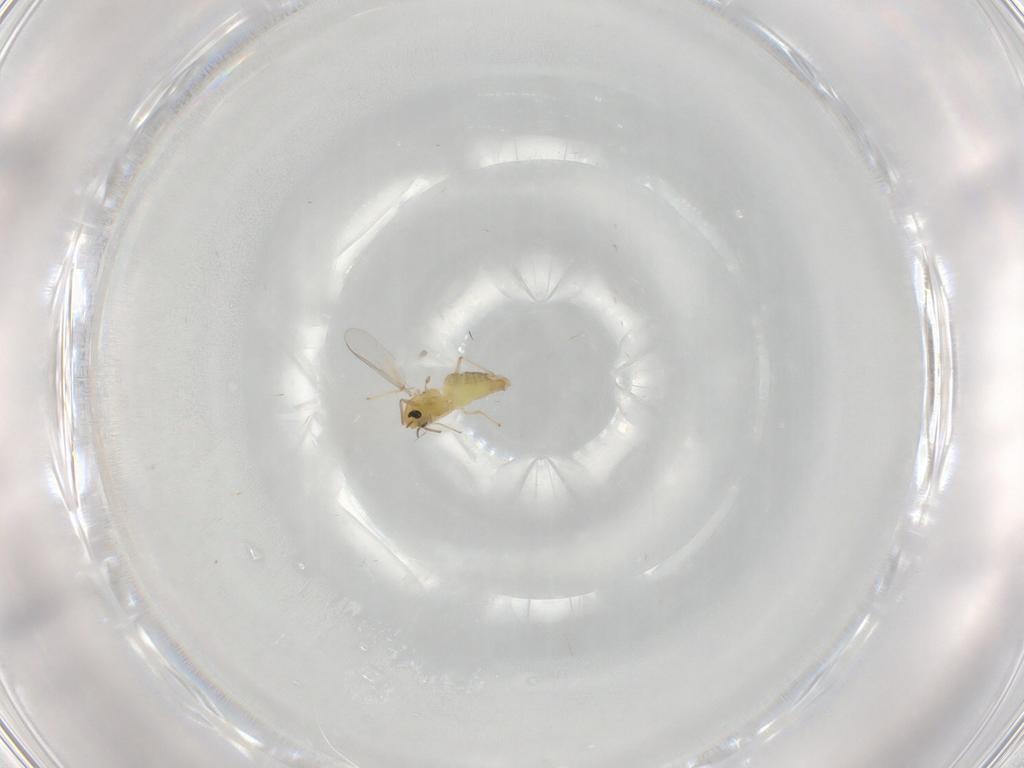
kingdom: Animalia
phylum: Arthropoda
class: Insecta
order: Diptera
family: Chironomidae
